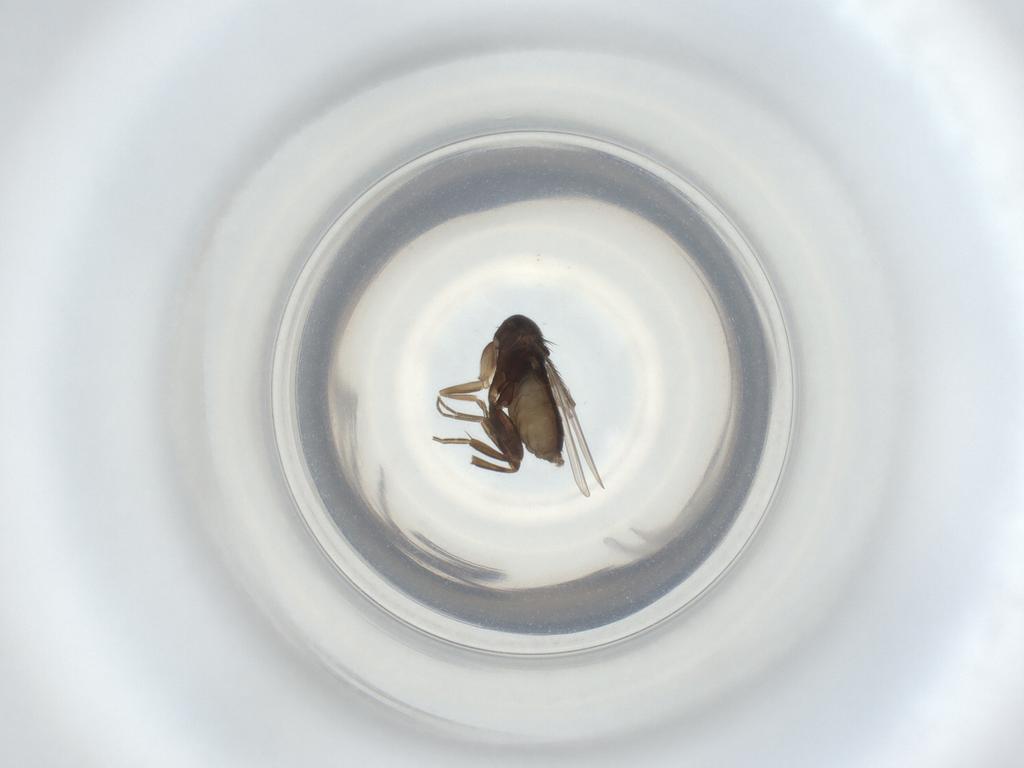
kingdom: Animalia
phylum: Arthropoda
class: Insecta
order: Diptera
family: Phoridae
